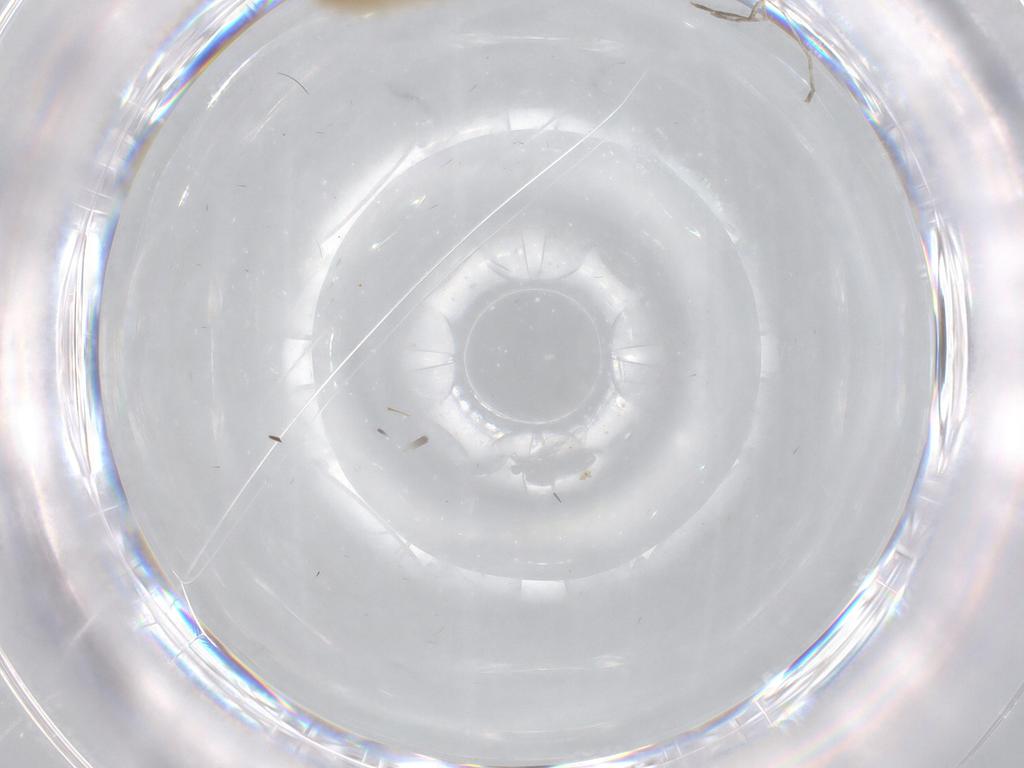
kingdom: Animalia
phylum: Arthropoda
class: Insecta
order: Diptera
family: Cecidomyiidae
